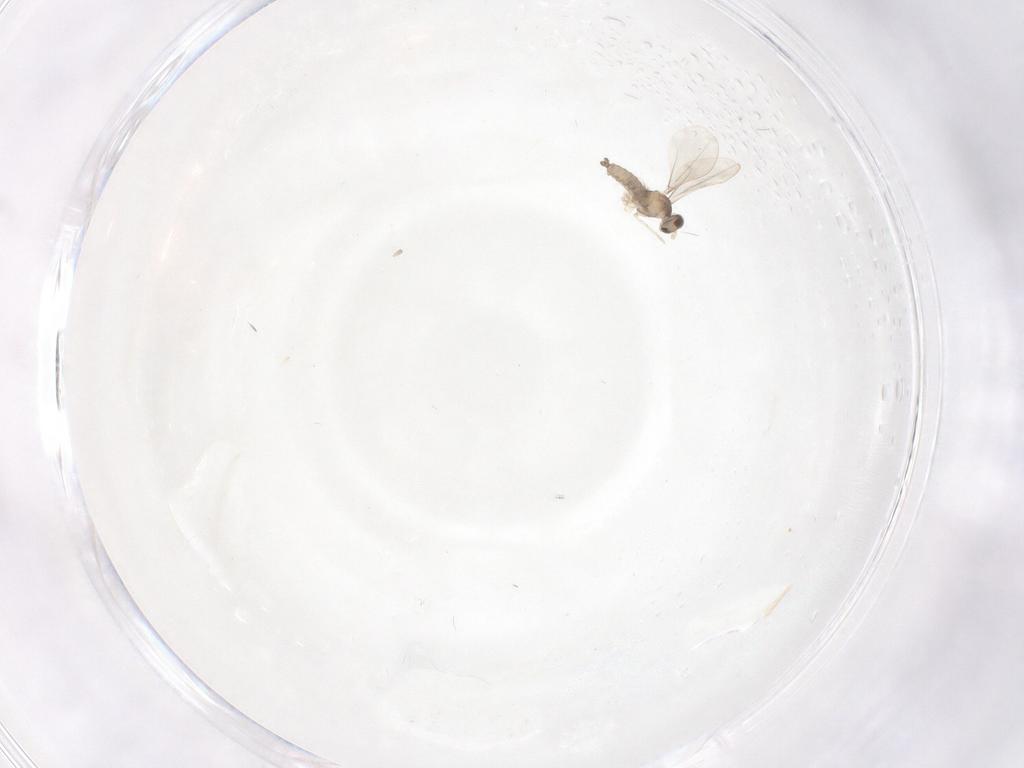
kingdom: Animalia
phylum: Arthropoda
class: Insecta
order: Diptera
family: Cecidomyiidae
